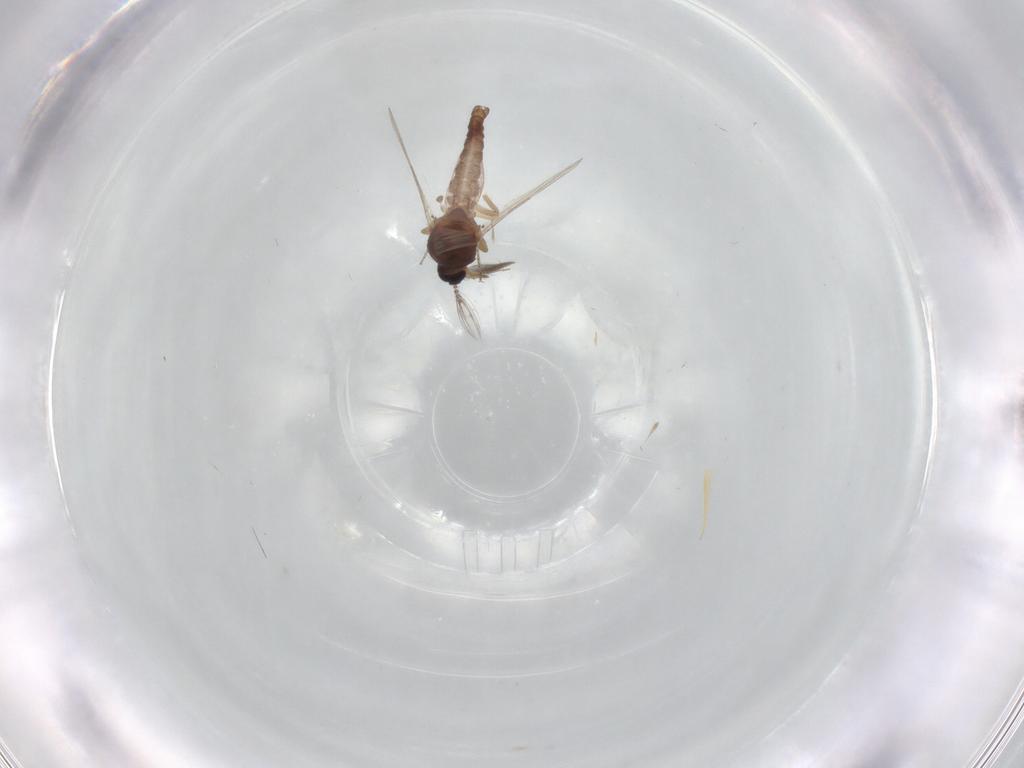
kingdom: Animalia
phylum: Arthropoda
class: Insecta
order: Diptera
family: Ceratopogonidae
